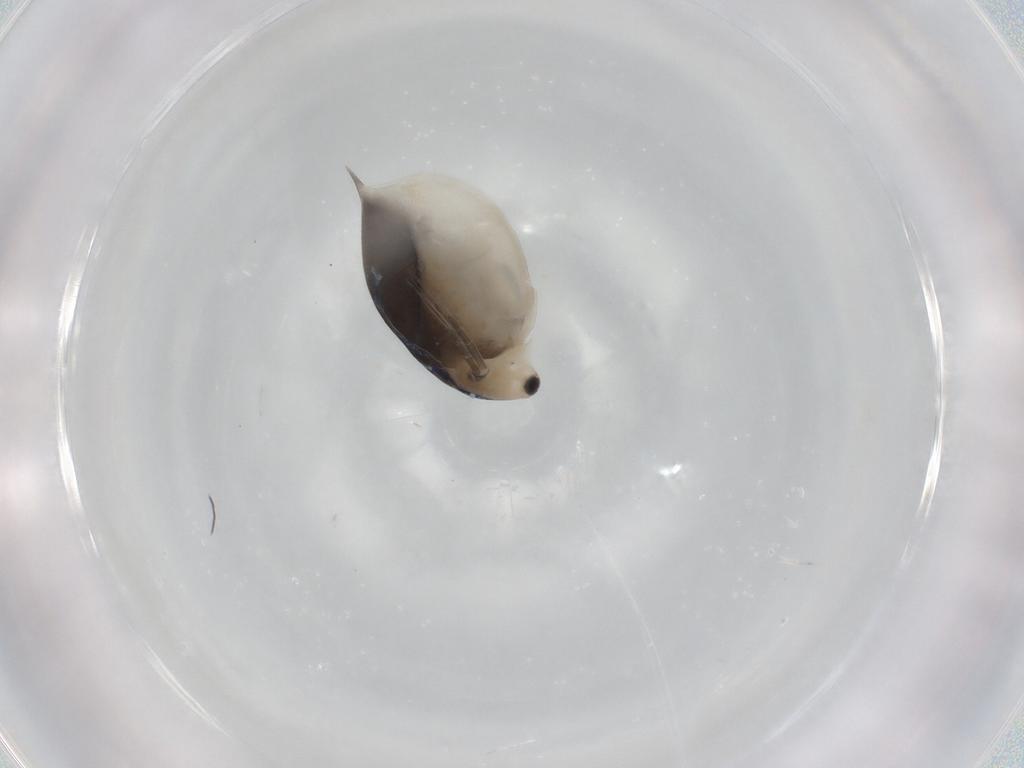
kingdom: Animalia
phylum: Arthropoda
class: Branchiopoda
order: Diplostraca
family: Daphniidae
